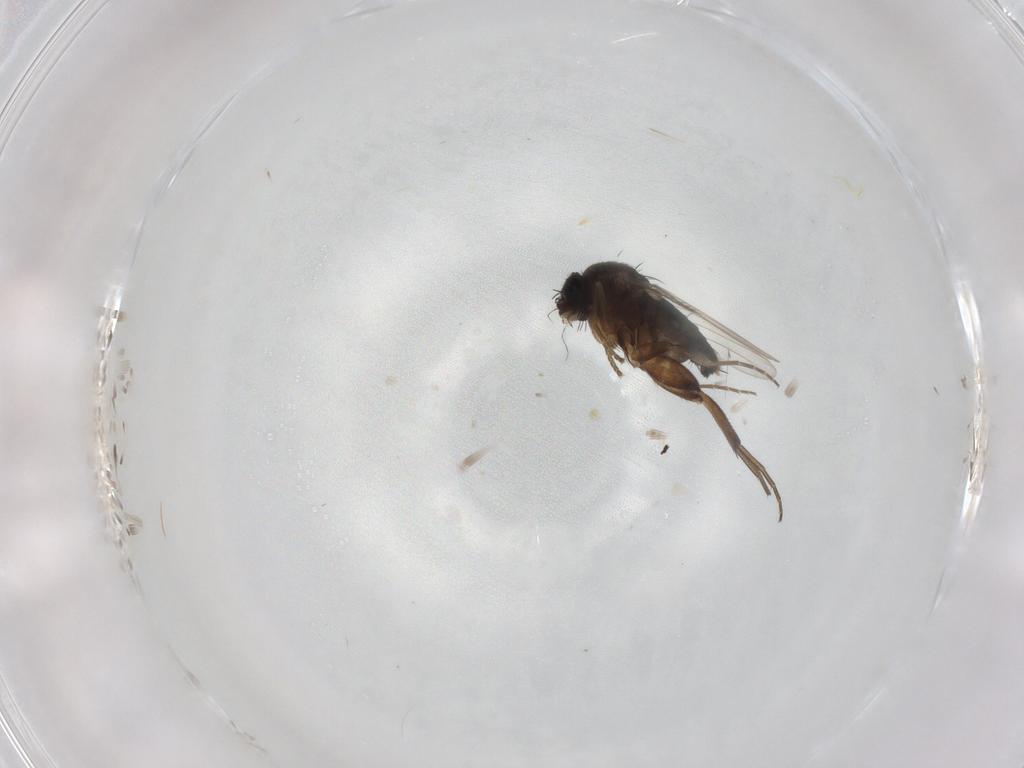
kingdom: Animalia
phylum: Arthropoda
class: Insecta
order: Diptera
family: Phoridae
